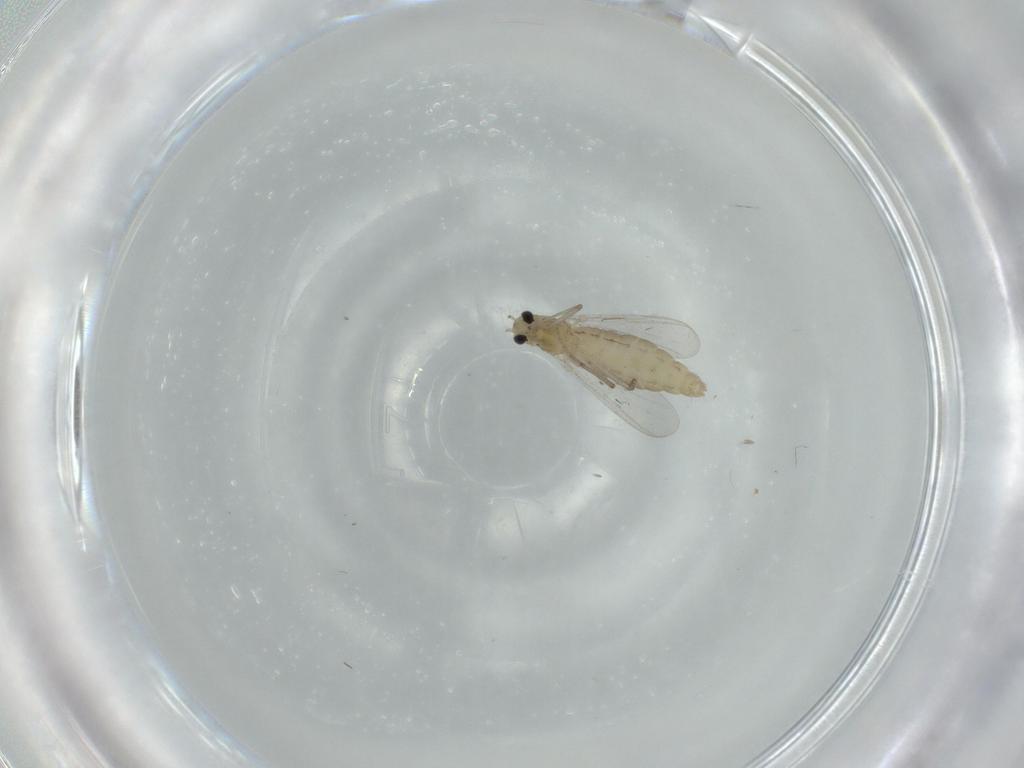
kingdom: Animalia
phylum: Arthropoda
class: Insecta
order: Diptera
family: Chironomidae
